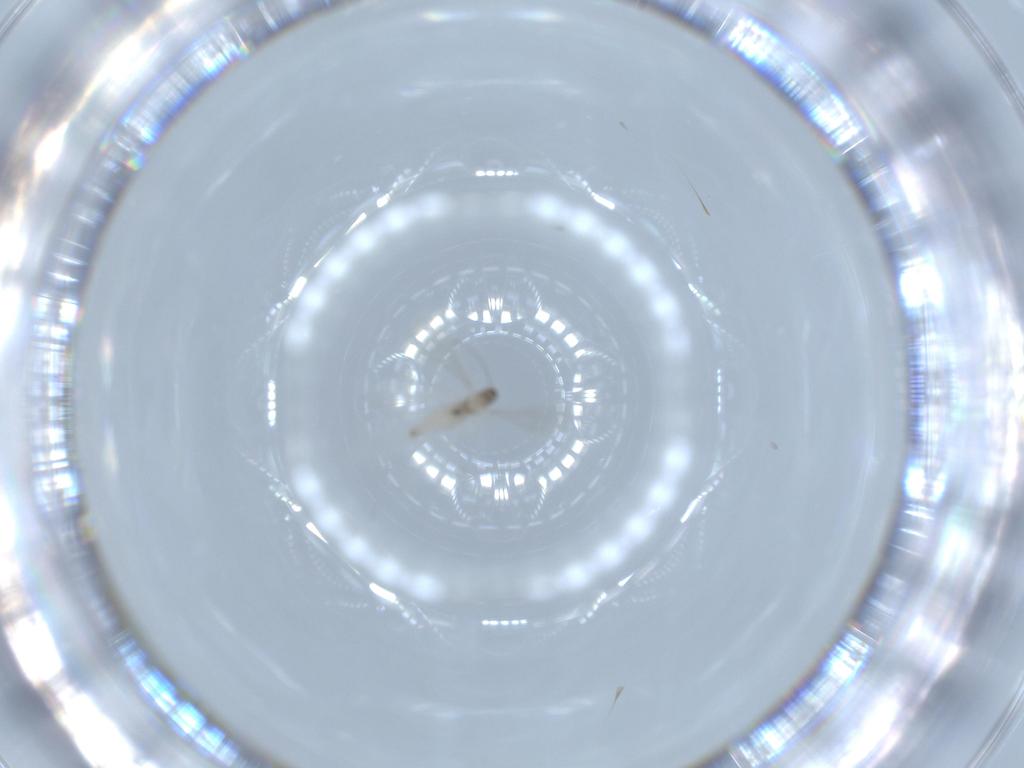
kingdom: Animalia
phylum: Arthropoda
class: Insecta
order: Diptera
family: Cecidomyiidae
